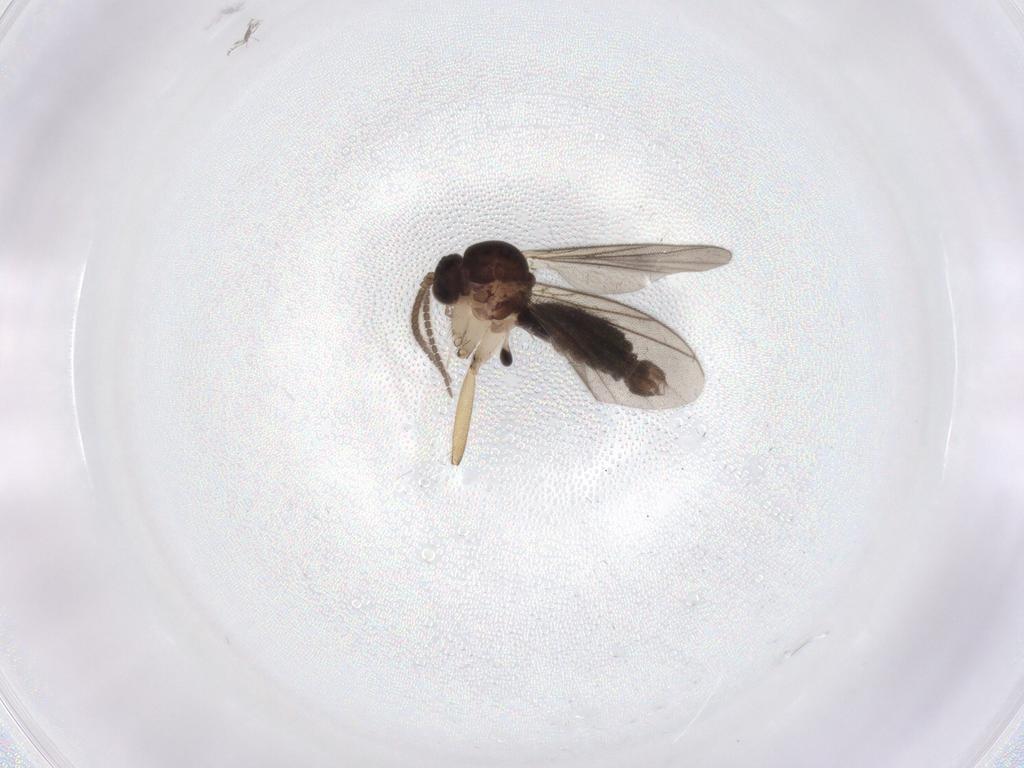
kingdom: Animalia
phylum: Arthropoda
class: Insecta
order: Diptera
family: Mycetophilidae
